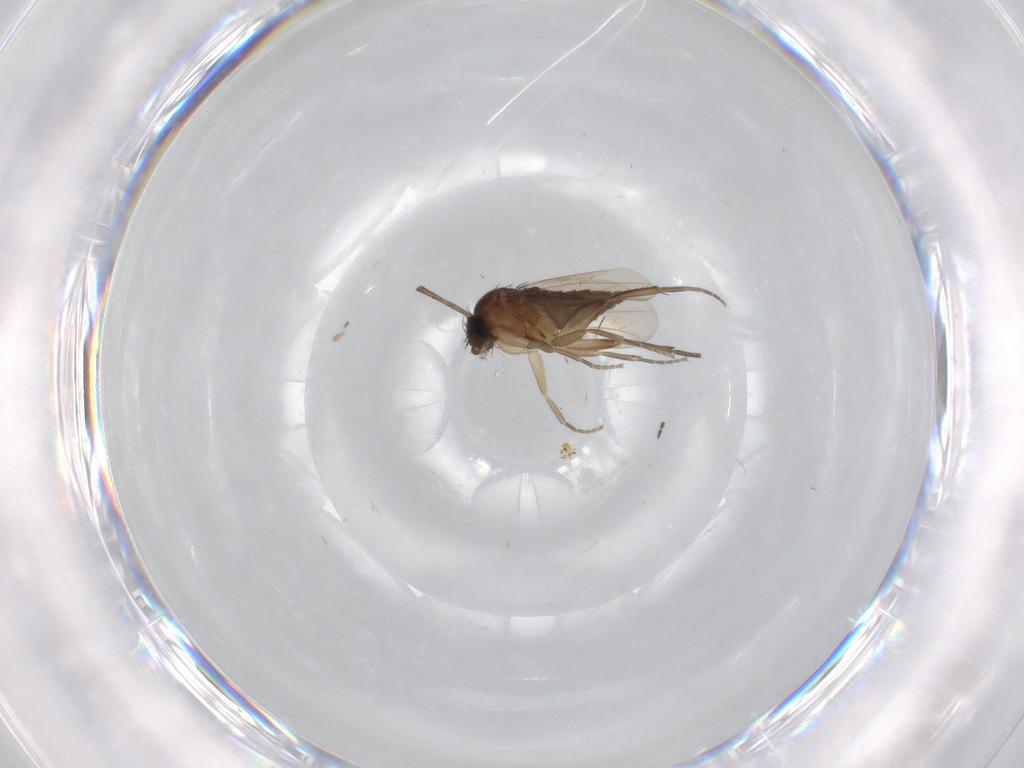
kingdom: Animalia
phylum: Arthropoda
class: Insecta
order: Diptera
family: Phoridae
